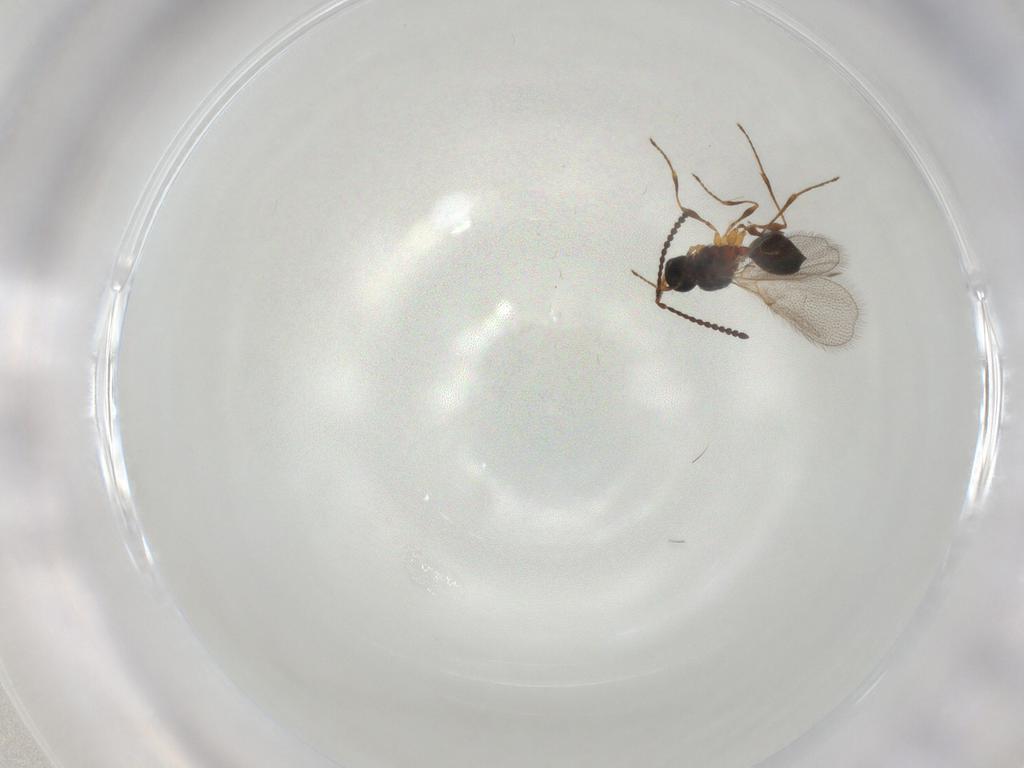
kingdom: Animalia
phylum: Arthropoda
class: Insecta
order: Hymenoptera
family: Diapriidae
